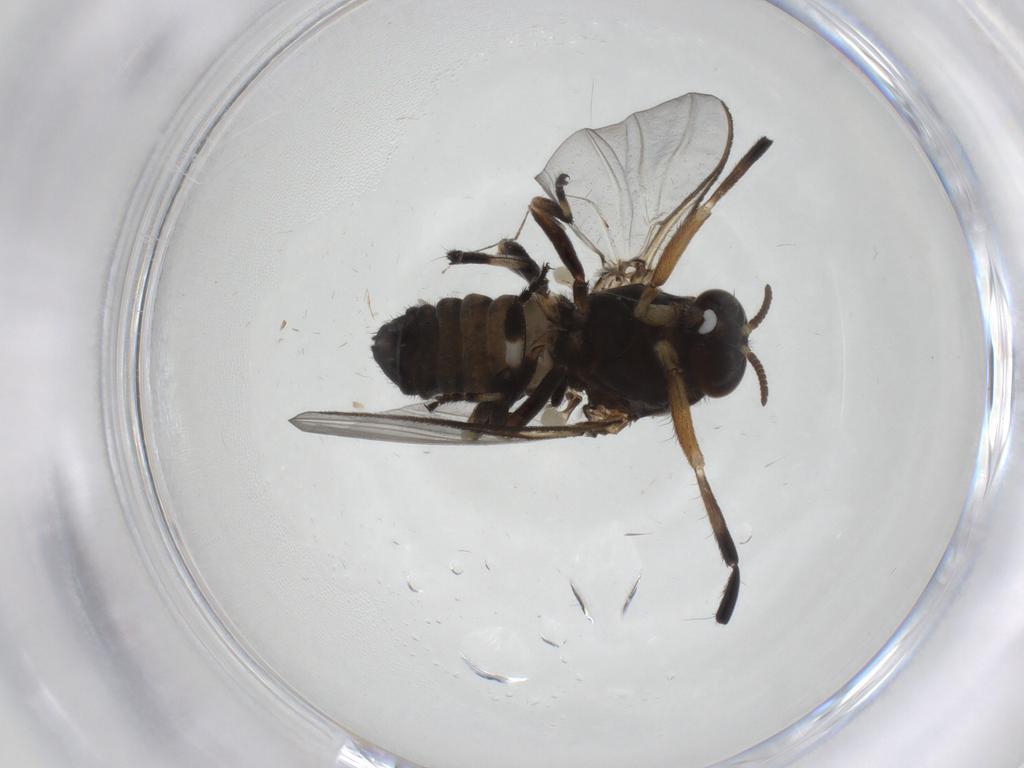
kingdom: Animalia
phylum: Arthropoda
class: Insecta
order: Diptera
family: Sciaridae
